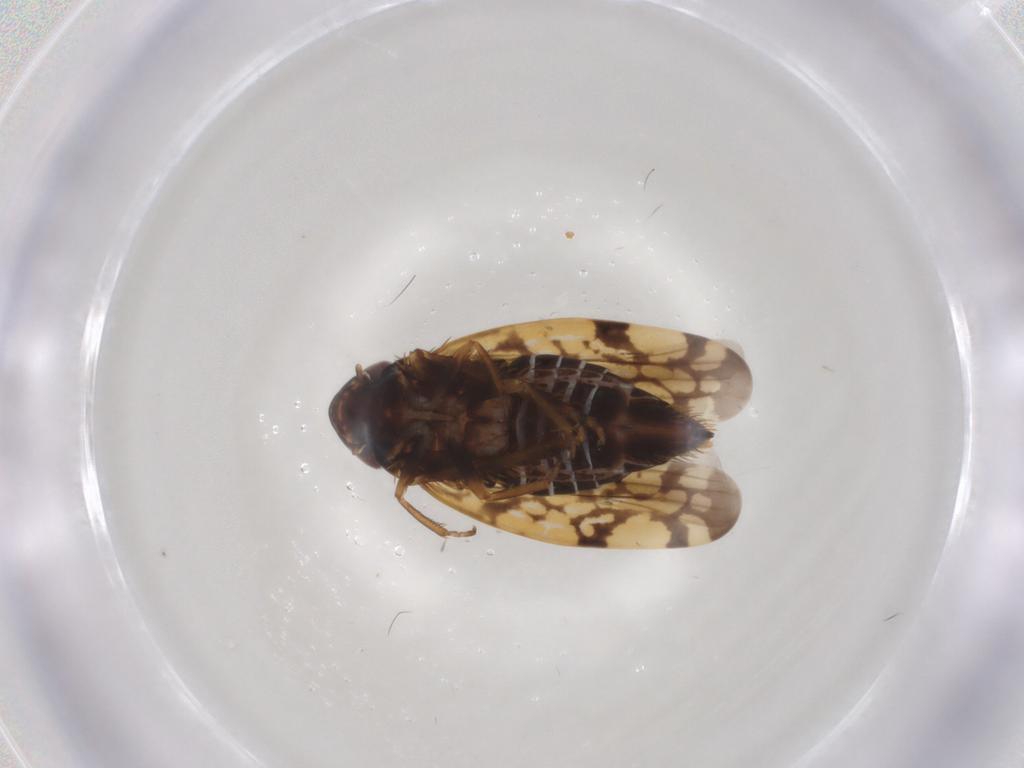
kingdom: Animalia
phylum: Arthropoda
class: Insecta
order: Hemiptera
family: Cicadellidae
